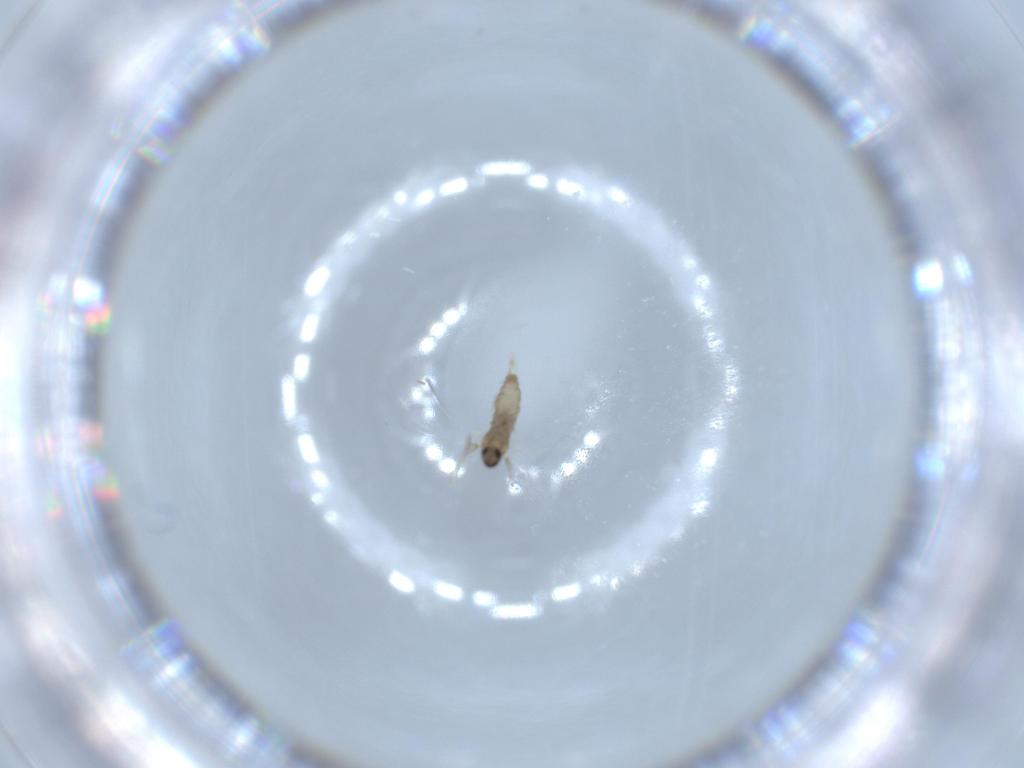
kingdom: Animalia
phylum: Arthropoda
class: Insecta
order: Diptera
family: Cecidomyiidae
